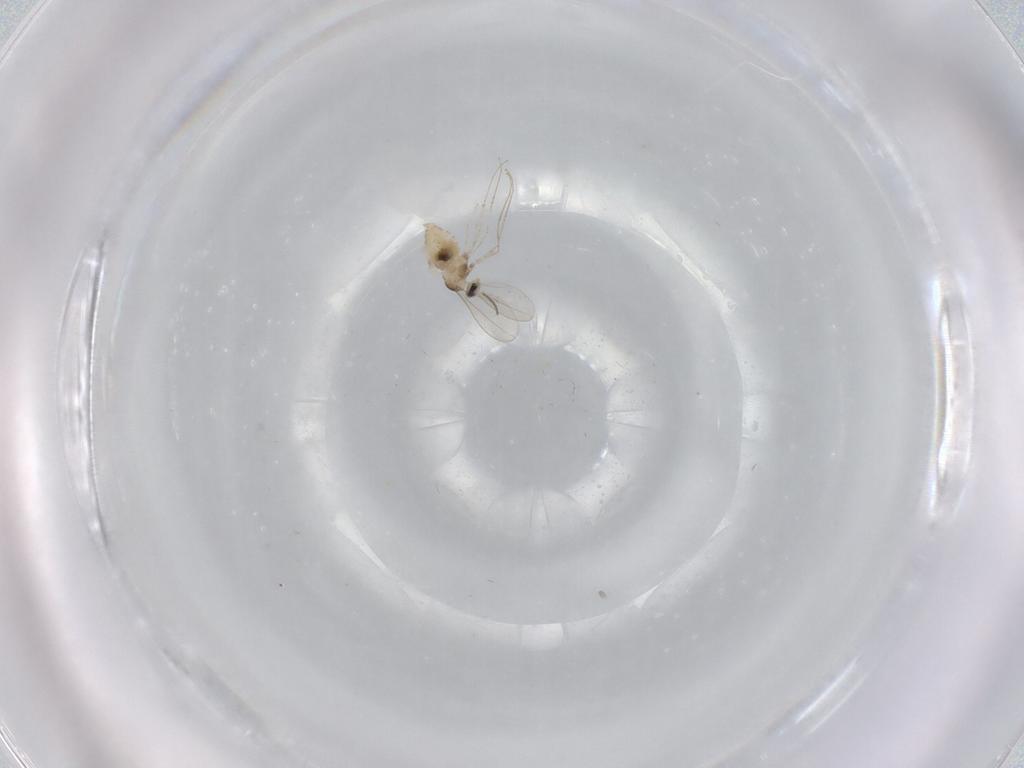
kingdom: Animalia
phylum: Arthropoda
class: Insecta
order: Diptera
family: Cecidomyiidae
